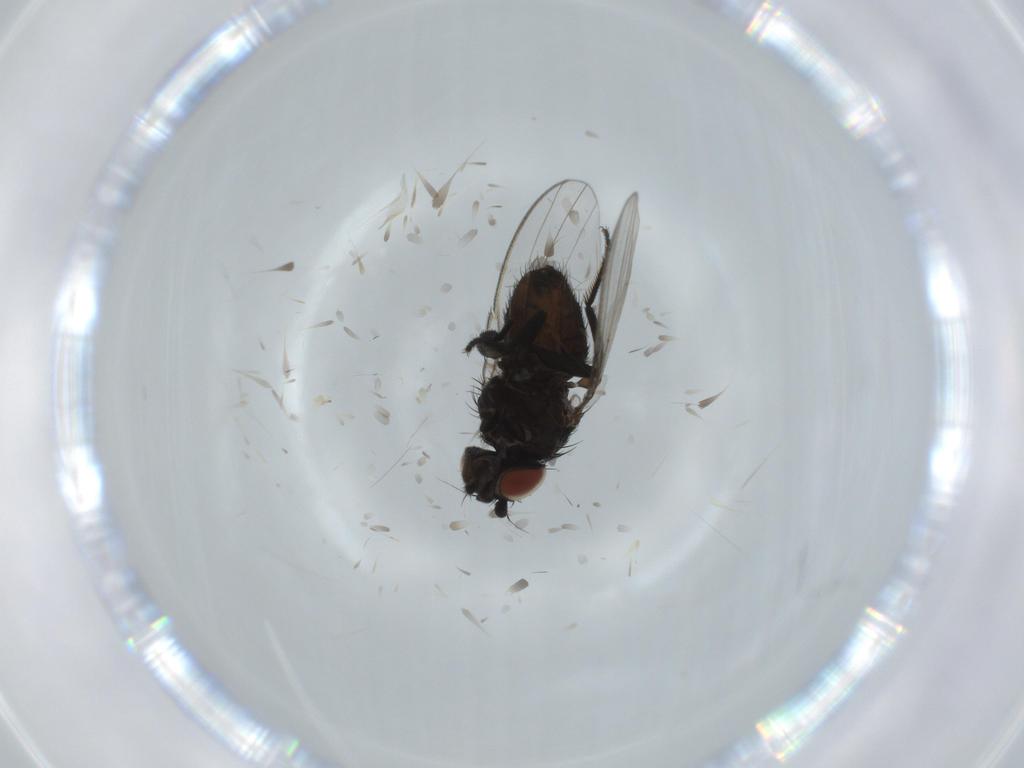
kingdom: Animalia
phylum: Arthropoda
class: Insecta
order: Diptera
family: Milichiidae
